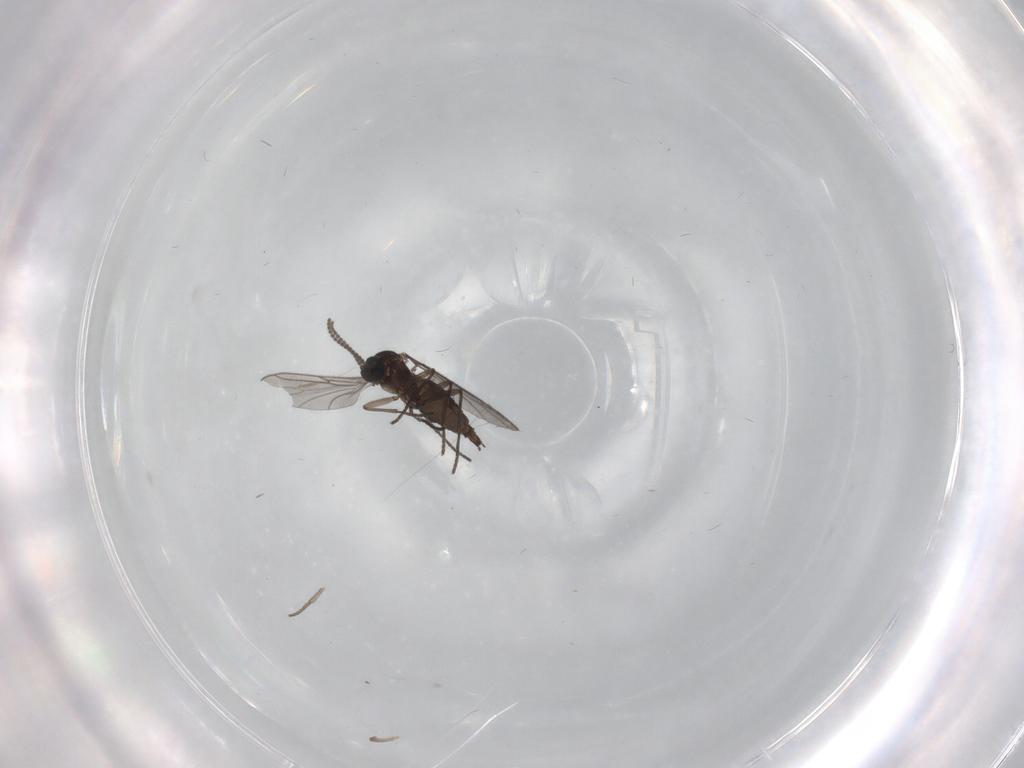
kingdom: Animalia
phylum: Arthropoda
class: Insecta
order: Diptera
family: Sciaridae
